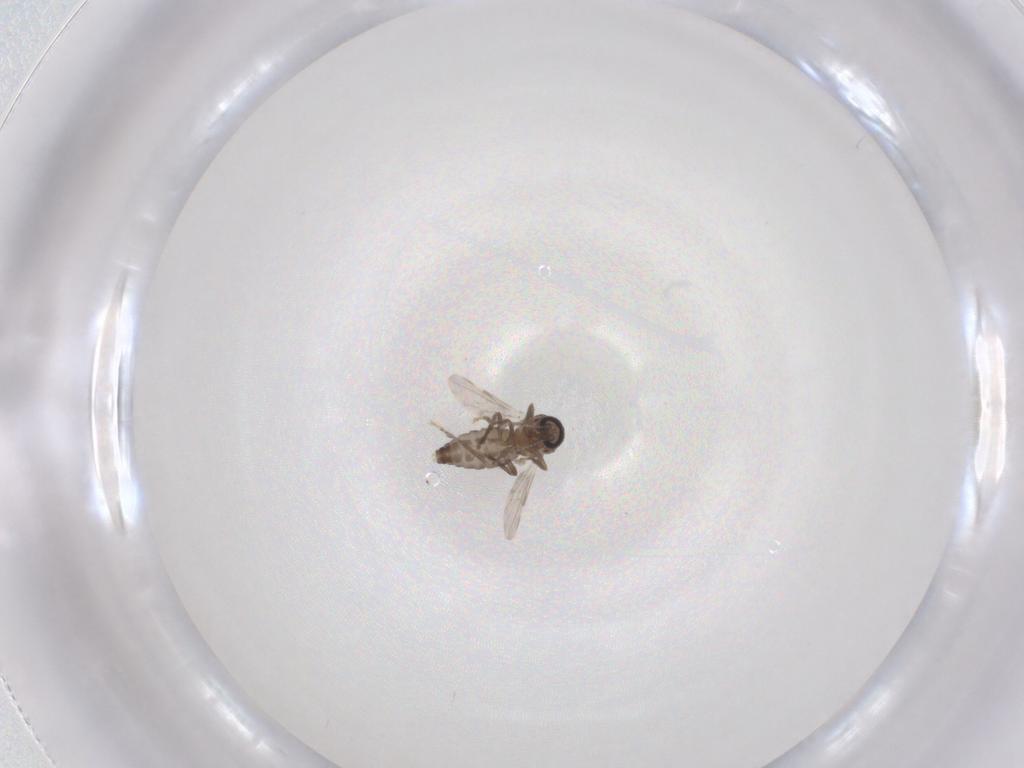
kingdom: Animalia
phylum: Arthropoda
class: Insecta
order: Diptera
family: Ceratopogonidae
